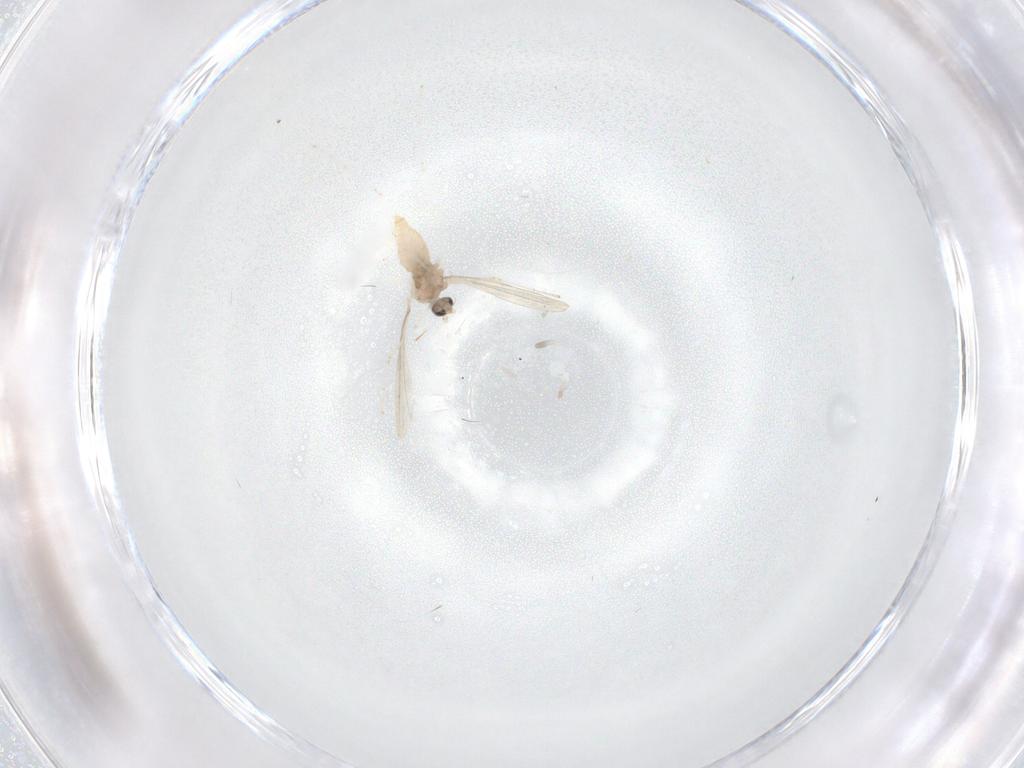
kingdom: Animalia
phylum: Arthropoda
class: Insecta
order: Diptera
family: Cecidomyiidae
